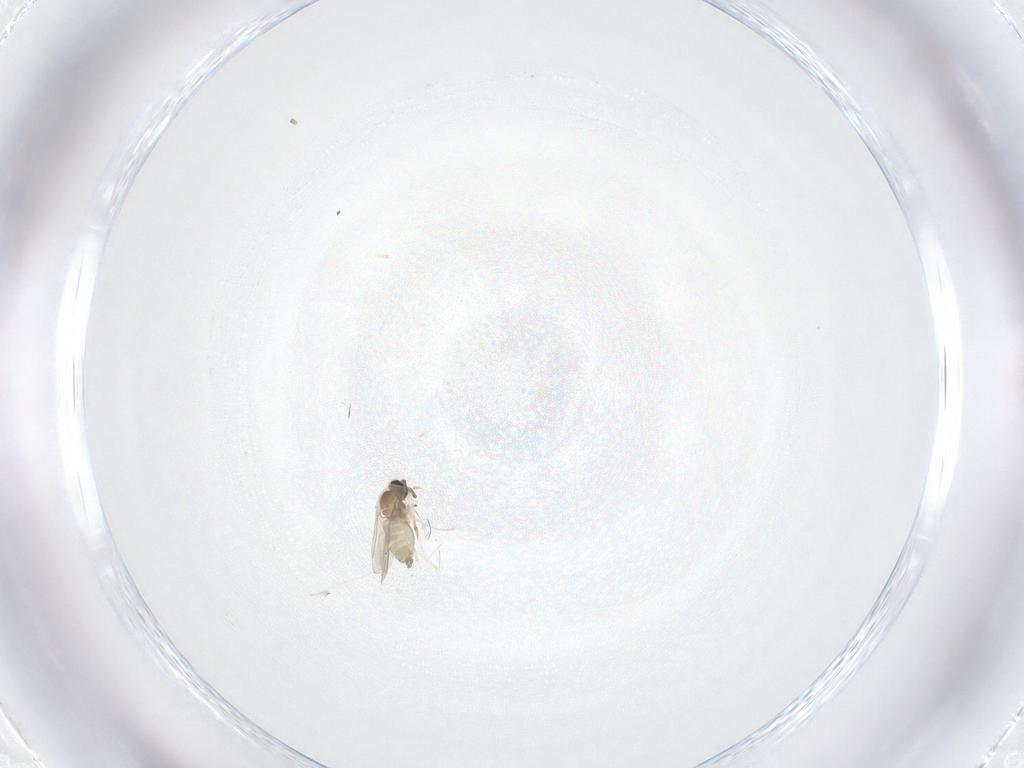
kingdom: Animalia
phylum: Arthropoda
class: Insecta
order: Diptera
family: Cecidomyiidae
